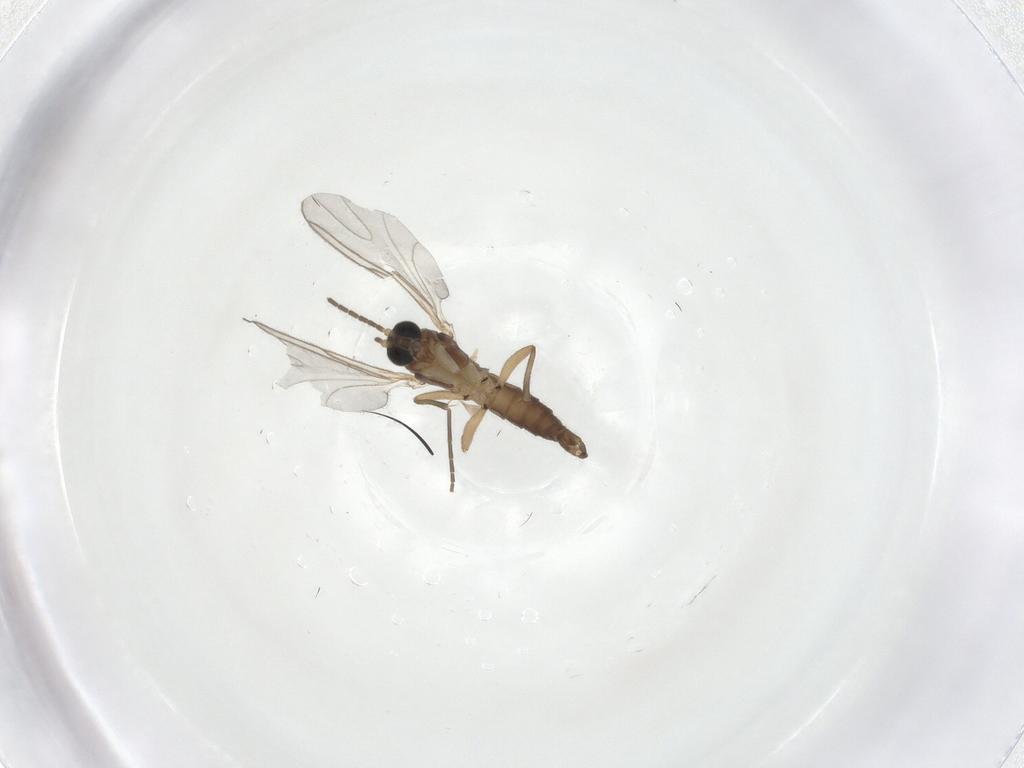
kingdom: Animalia
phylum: Arthropoda
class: Insecta
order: Diptera
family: Sciaridae
